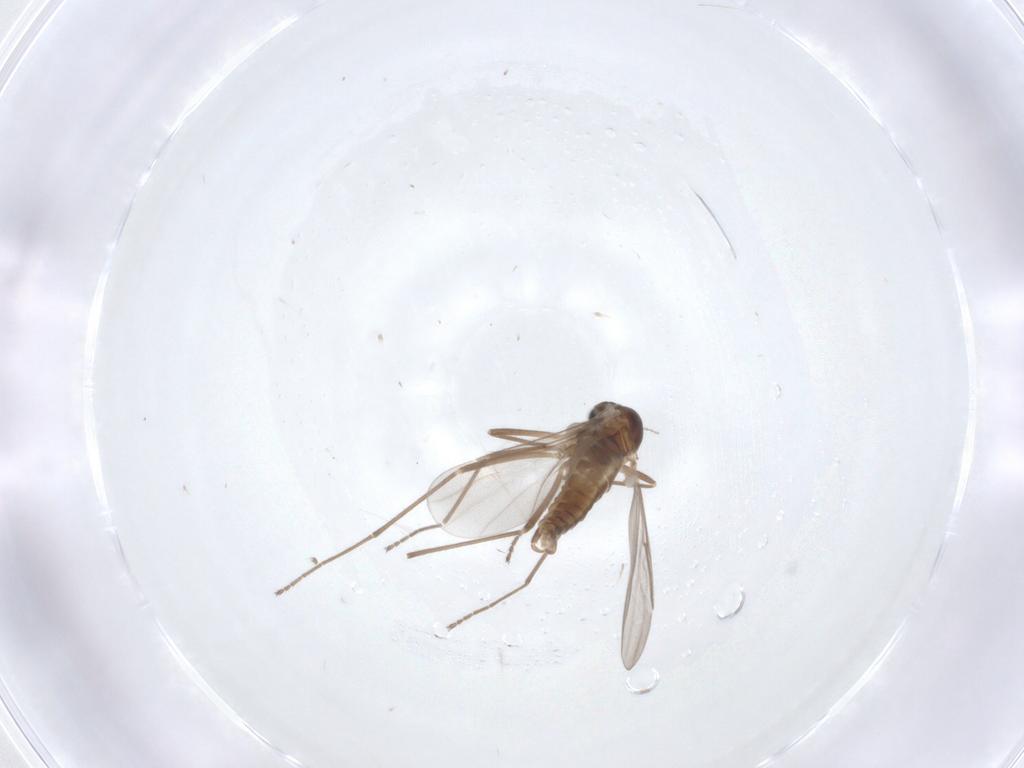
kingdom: Animalia
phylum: Arthropoda
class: Insecta
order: Diptera
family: Cecidomyiidae
